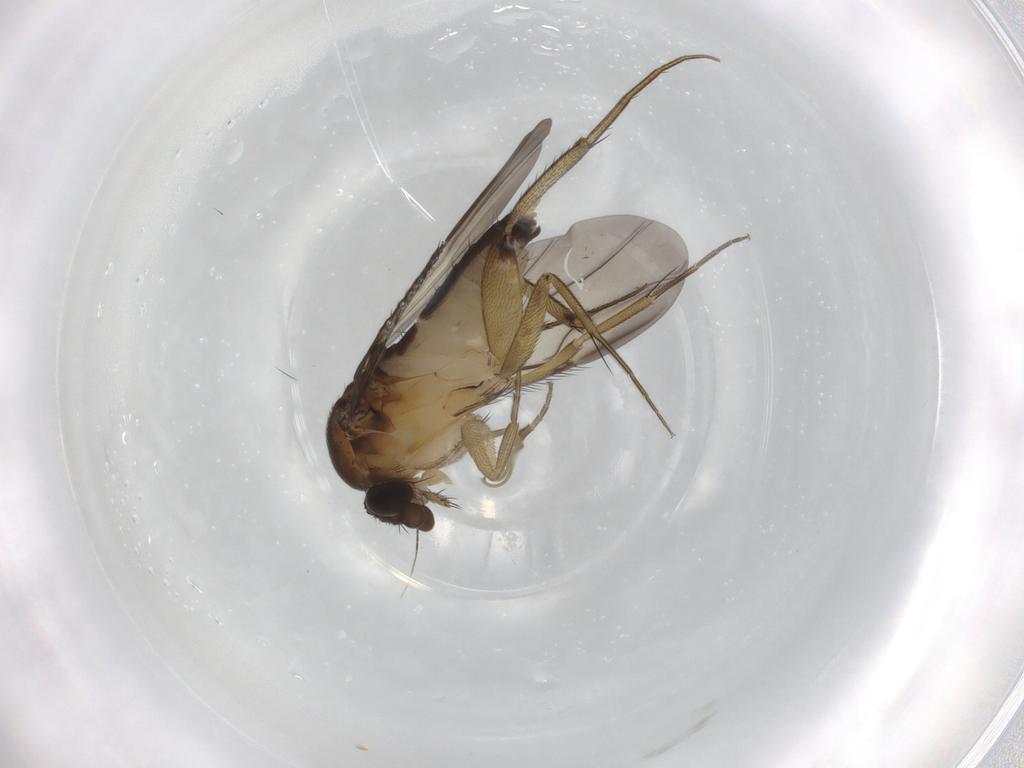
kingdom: Animalia
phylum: Arthropoda
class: Insecta
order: Diptera
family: Phoridae
